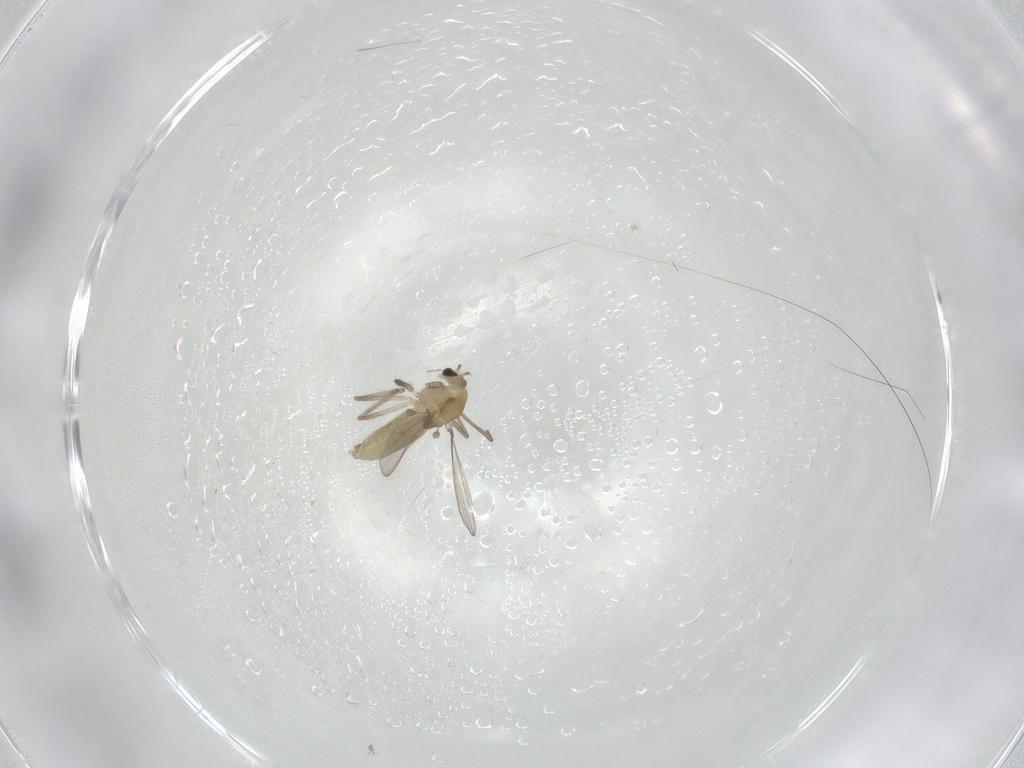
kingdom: Animalia
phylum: Arthropoda
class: Insecta
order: Diptera
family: Chironomidae
